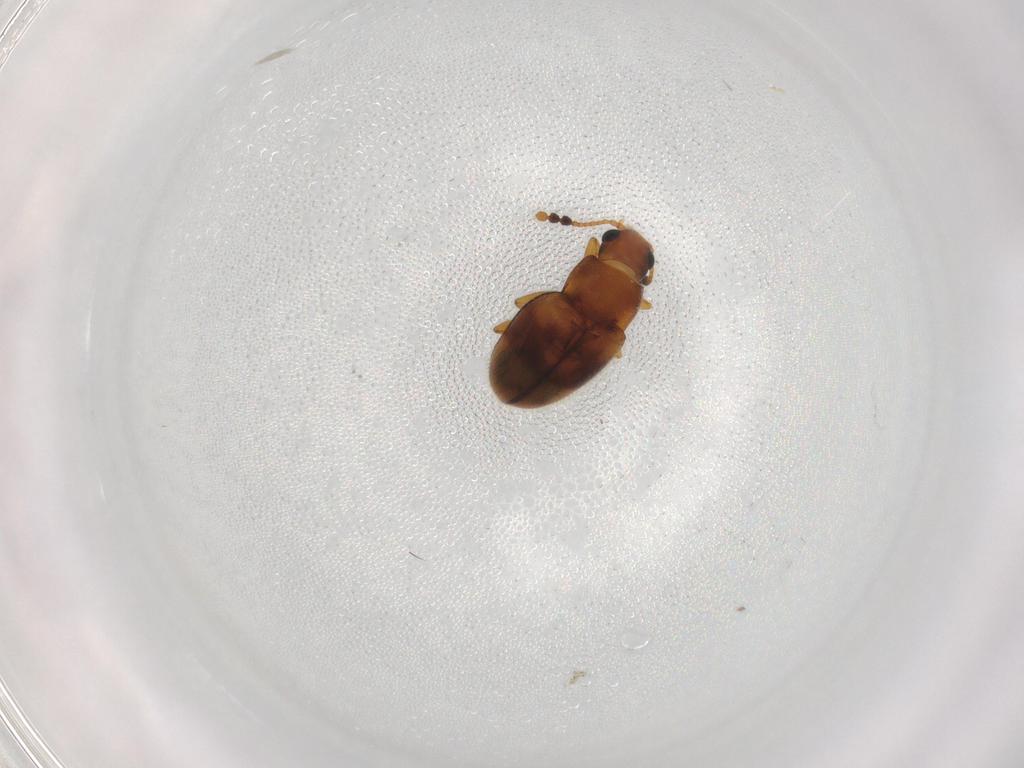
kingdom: Animalia
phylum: Arthropoda
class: Insecta
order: Coleoptera
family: Erotylidae
